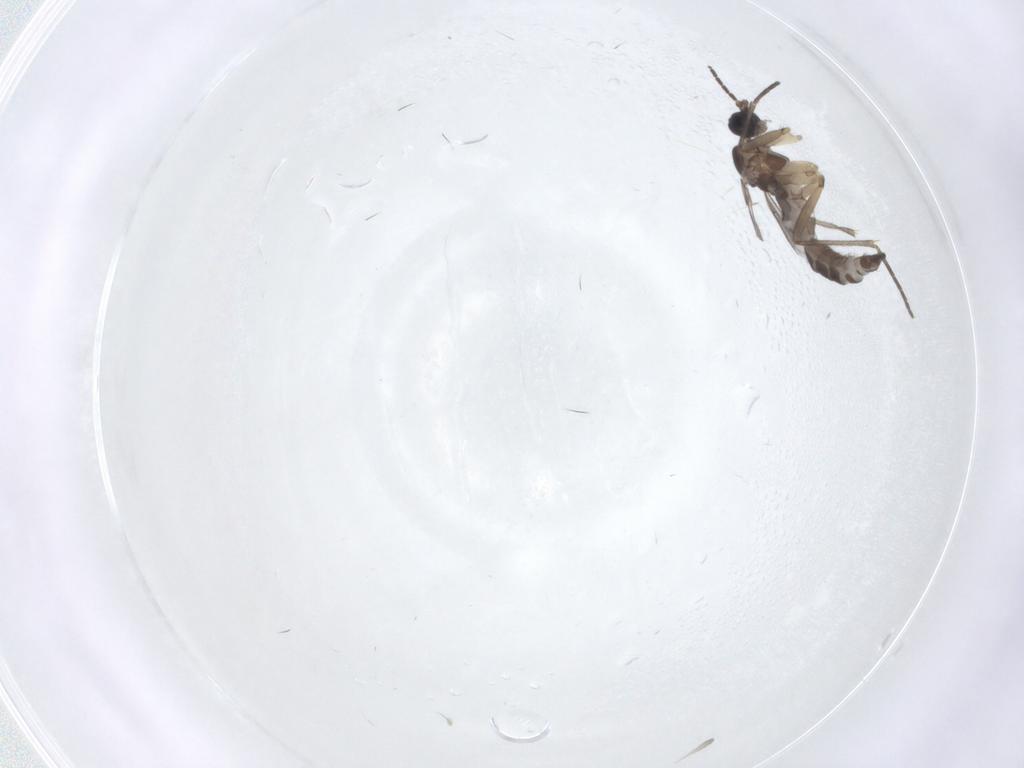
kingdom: Animalia
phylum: Arthropoda
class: Insecta
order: Diptera
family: Sciaridae
